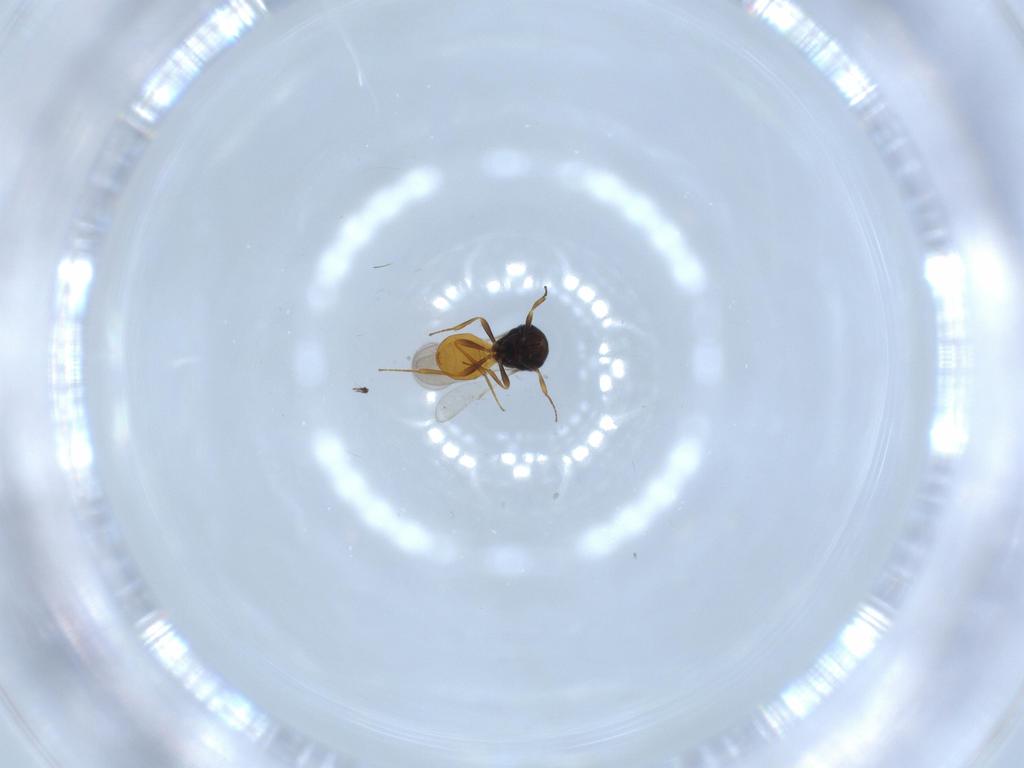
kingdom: Animalia
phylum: Arthropoda
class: Insecta
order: Hymenoptera
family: Scelionidae
